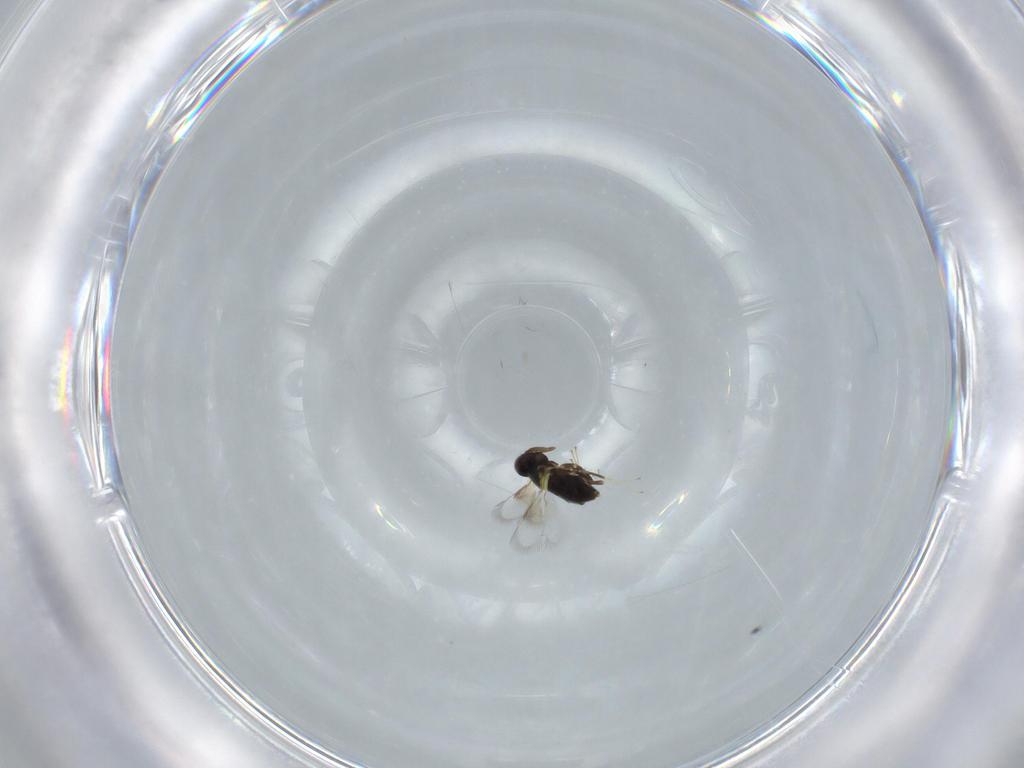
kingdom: Animalia
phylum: Arthropoda
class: Insecta
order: Hymenoptera
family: Signiphoridae
